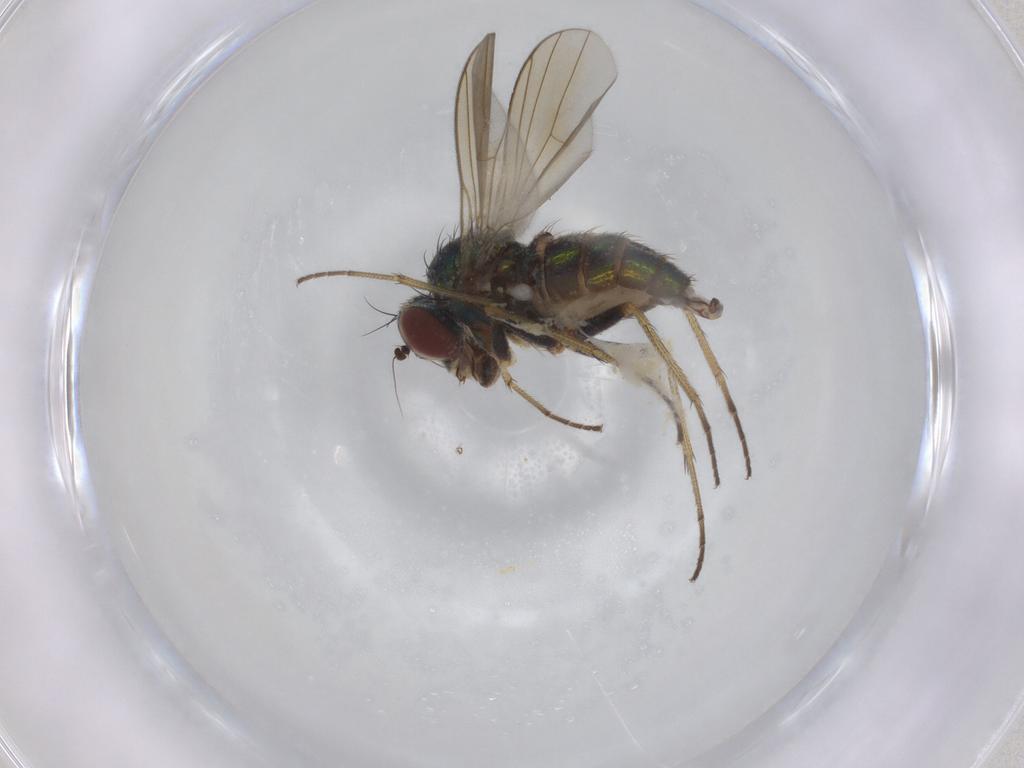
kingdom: Animalia
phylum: Arthropoda
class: Insecta
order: Diptera
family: Dolichopodidae
